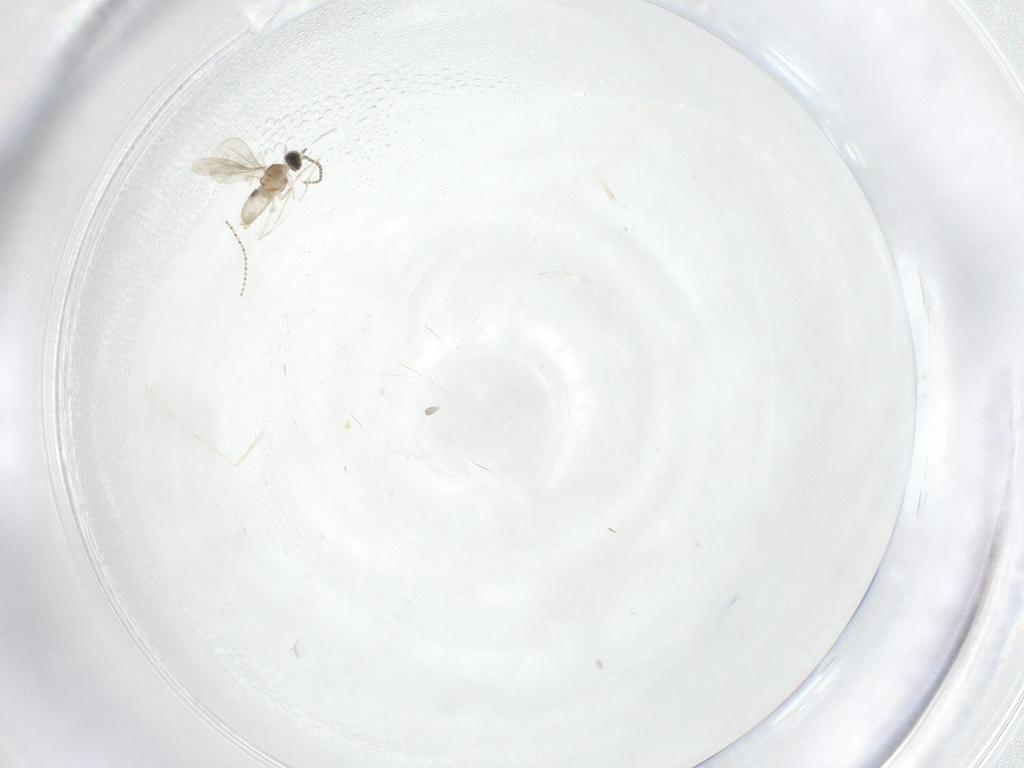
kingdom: Animalia
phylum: Arthropoda
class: Insecta
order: Diptera
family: Cecidomyiidae
